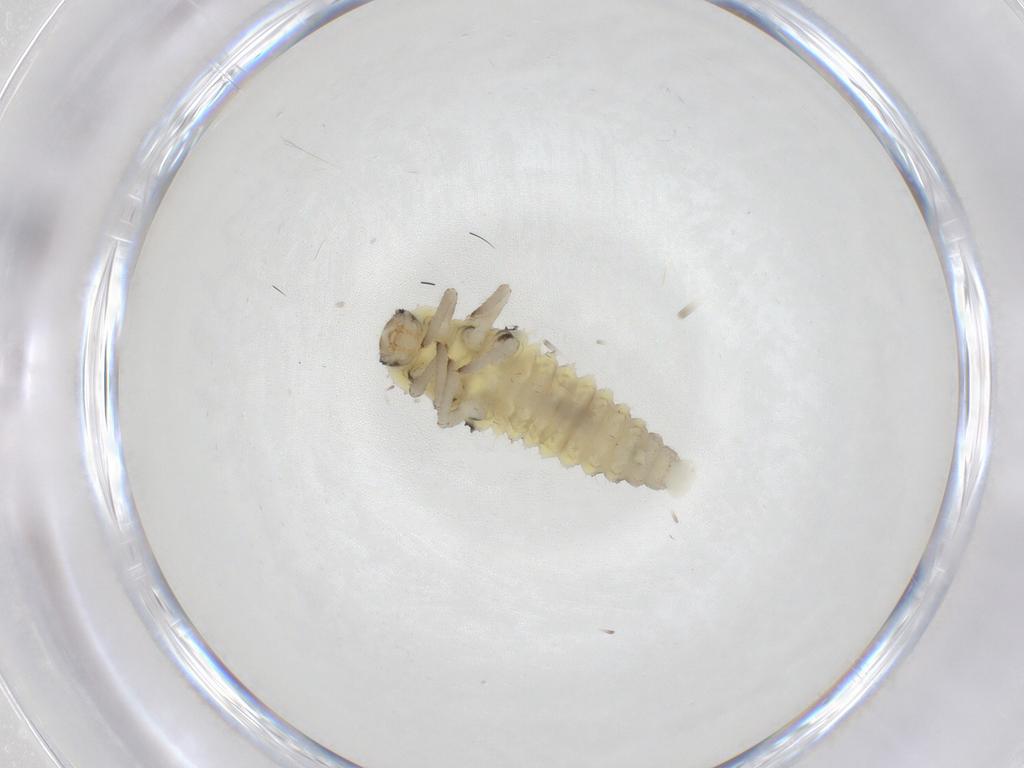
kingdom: Animalia
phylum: Arthropoda
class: Insecta
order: Coleoptera
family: Coccinellidae
